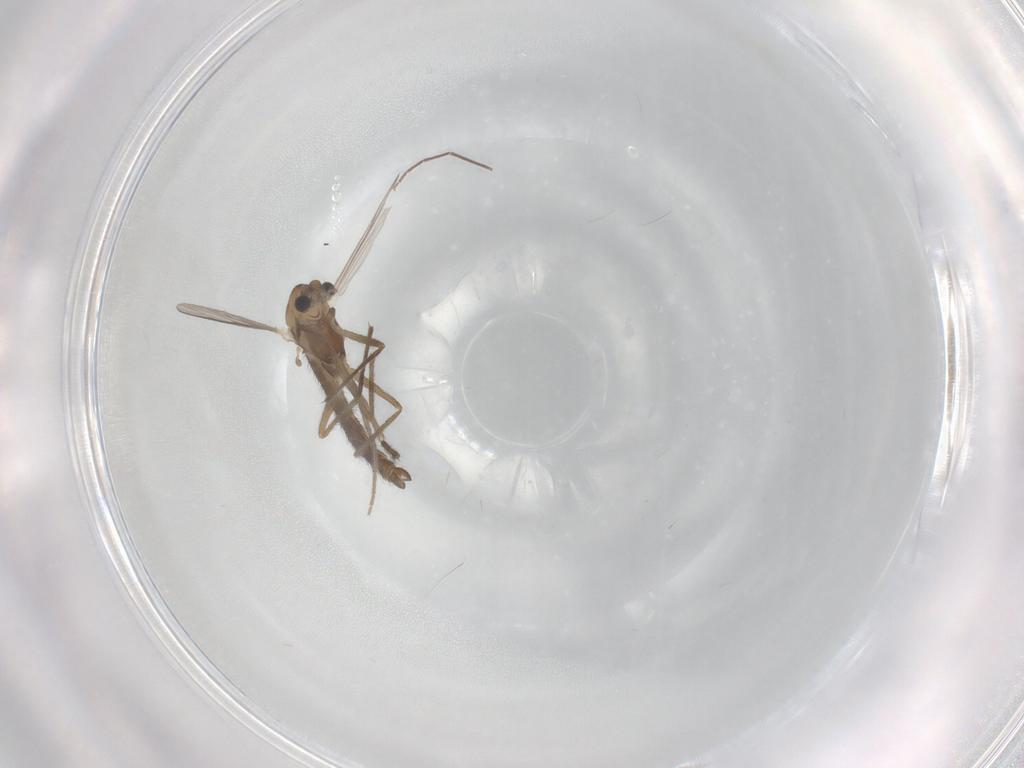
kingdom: Animalia
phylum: Arthropoda
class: Insecta
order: Diptera
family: Chironomidae
